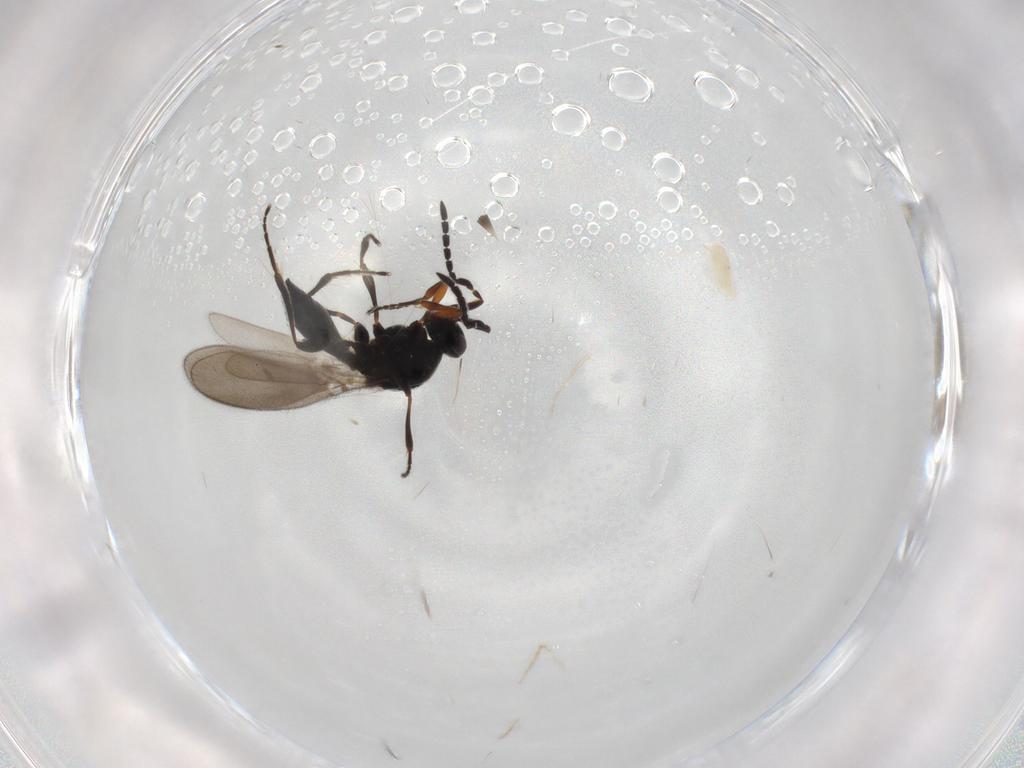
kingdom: Animalia
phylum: Arthropoda
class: Insecta
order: Hymenoptera
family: Platygastridae
